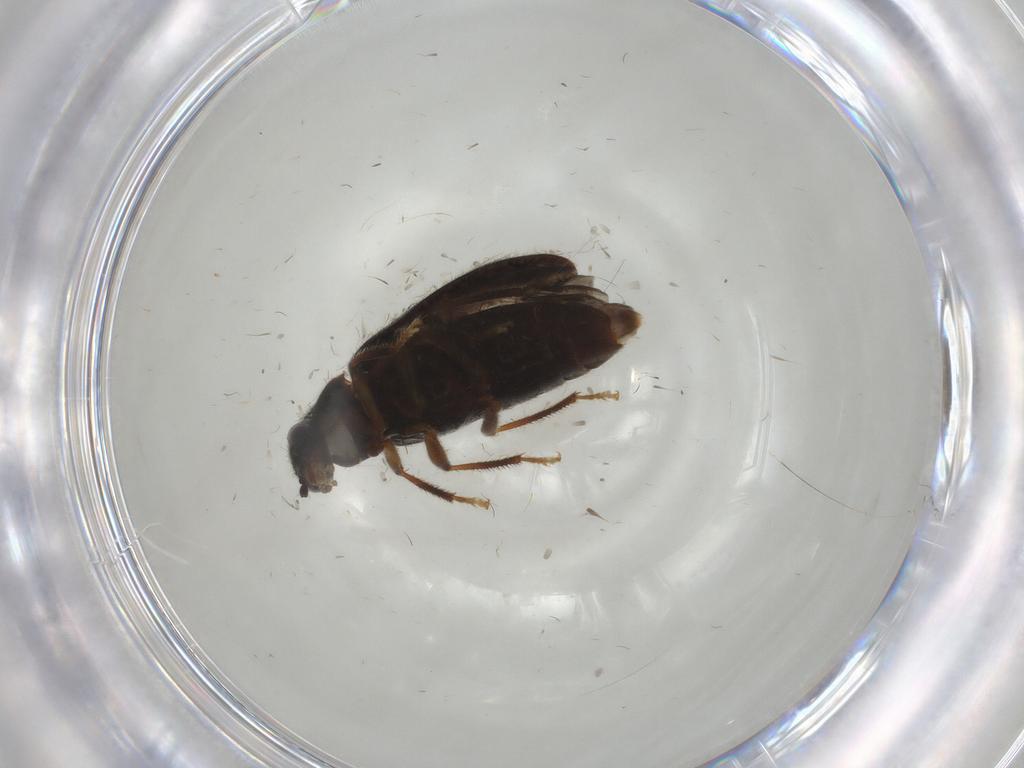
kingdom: Animalia
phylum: Arthropoda
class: Insecta
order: Coleoptera
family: Ptilodactylidae
